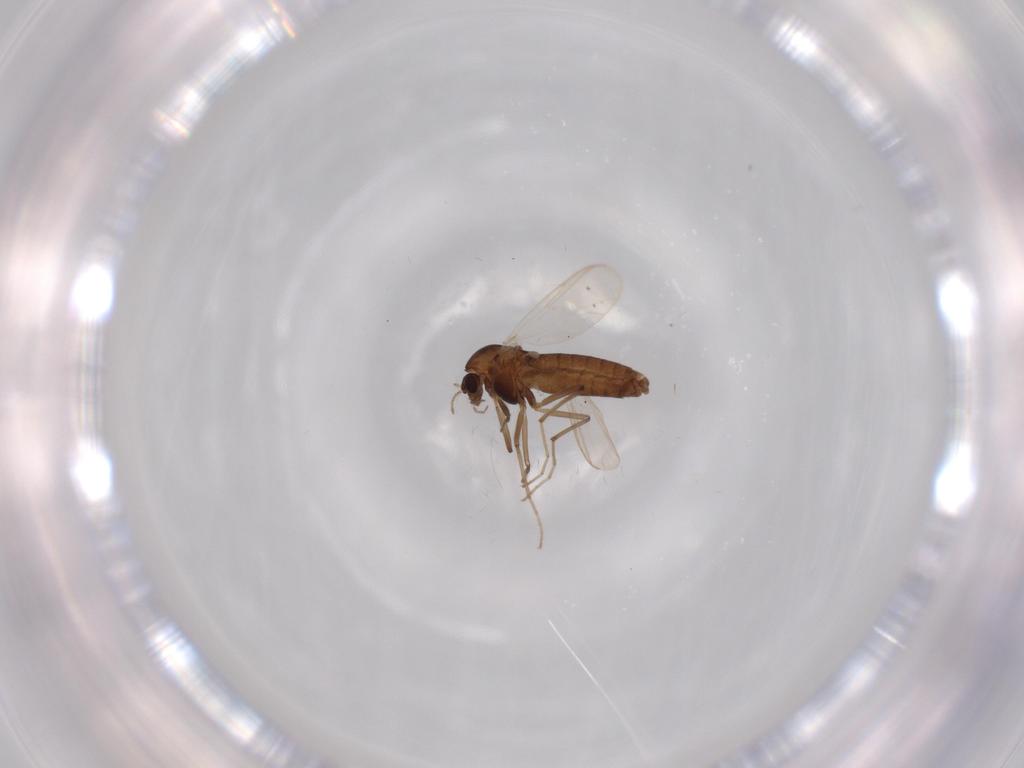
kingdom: Animalia
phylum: Arthropoda
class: Insecta
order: Diptera
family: Chironomidae
